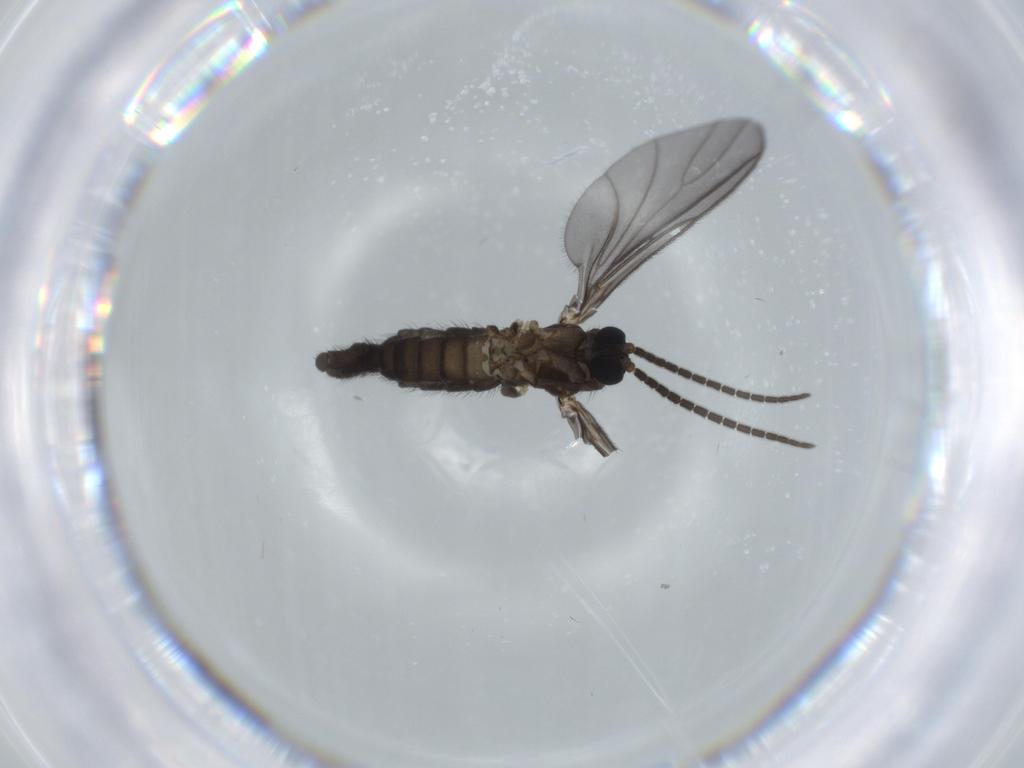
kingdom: Animalia
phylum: Arthropoda
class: Insecta
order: Diptera
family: Sciaridae
